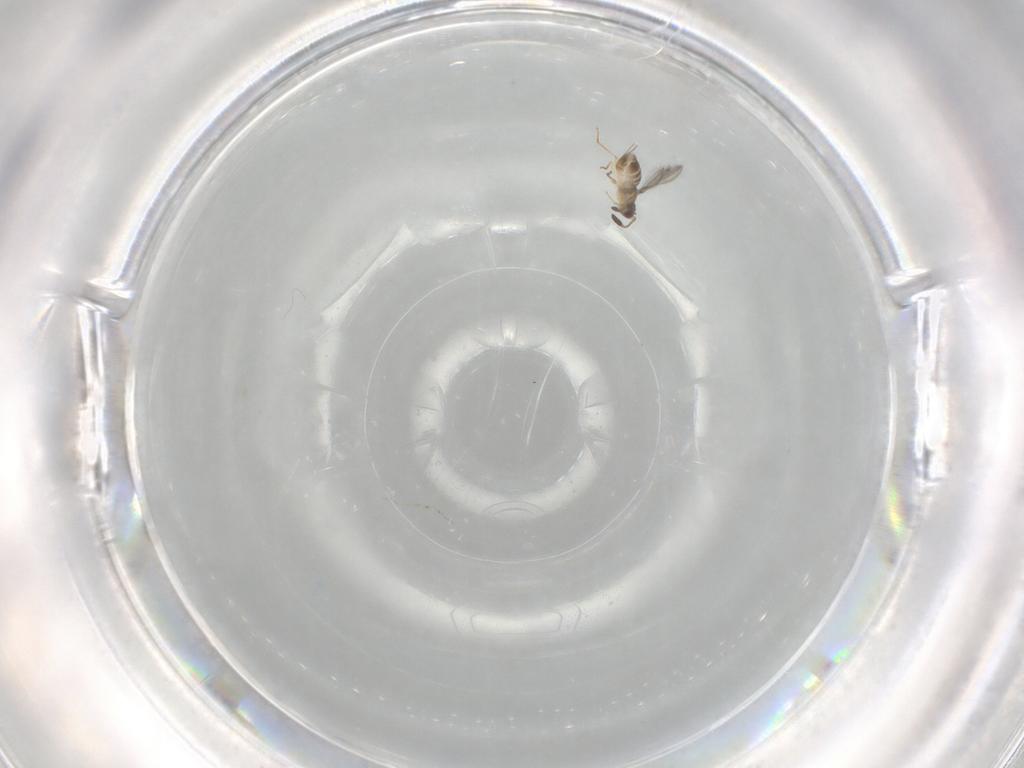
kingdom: Animalia
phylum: Arthropoda
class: Insecta
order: Hymenoptera
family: Mymaridae
